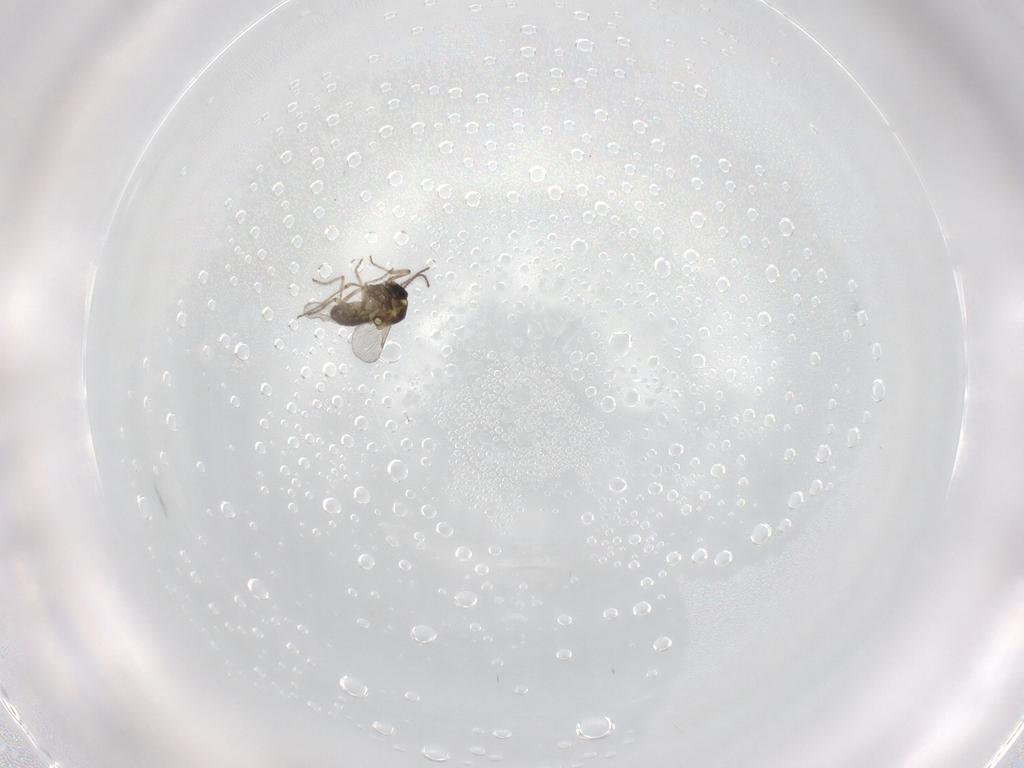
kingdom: Animalia
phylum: Arthropoda
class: Insecta
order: Diptera
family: Ceratopogonidae
